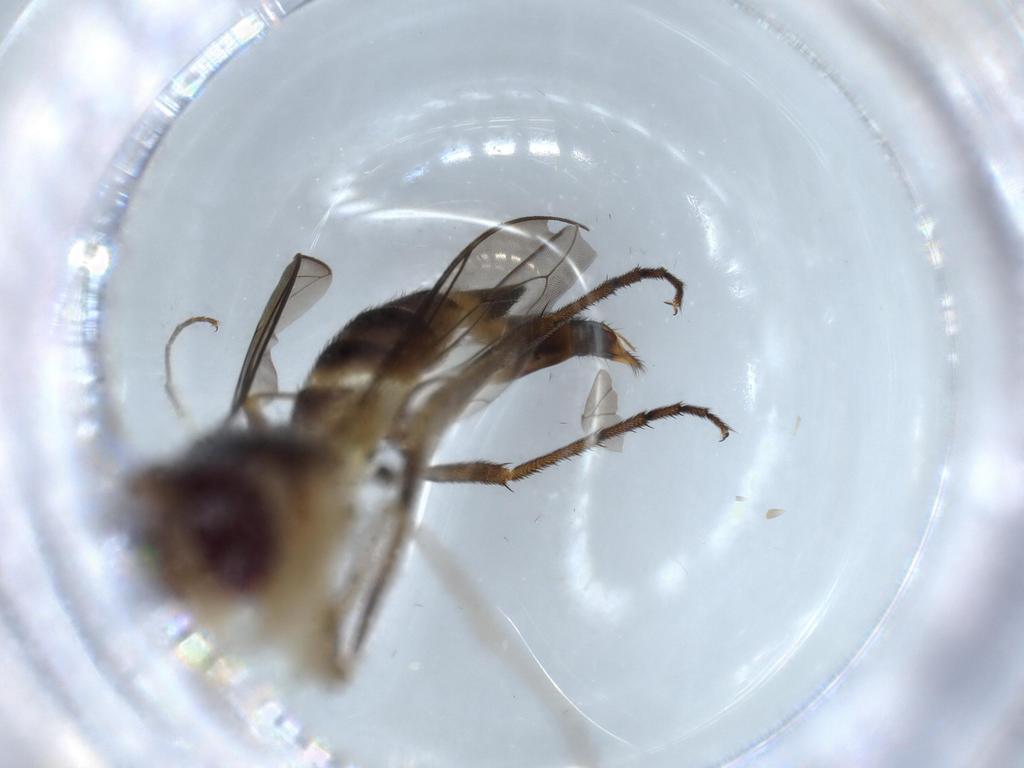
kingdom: Animalia
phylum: Arthropoda
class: Insecta
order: Diptera
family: Conopidae
